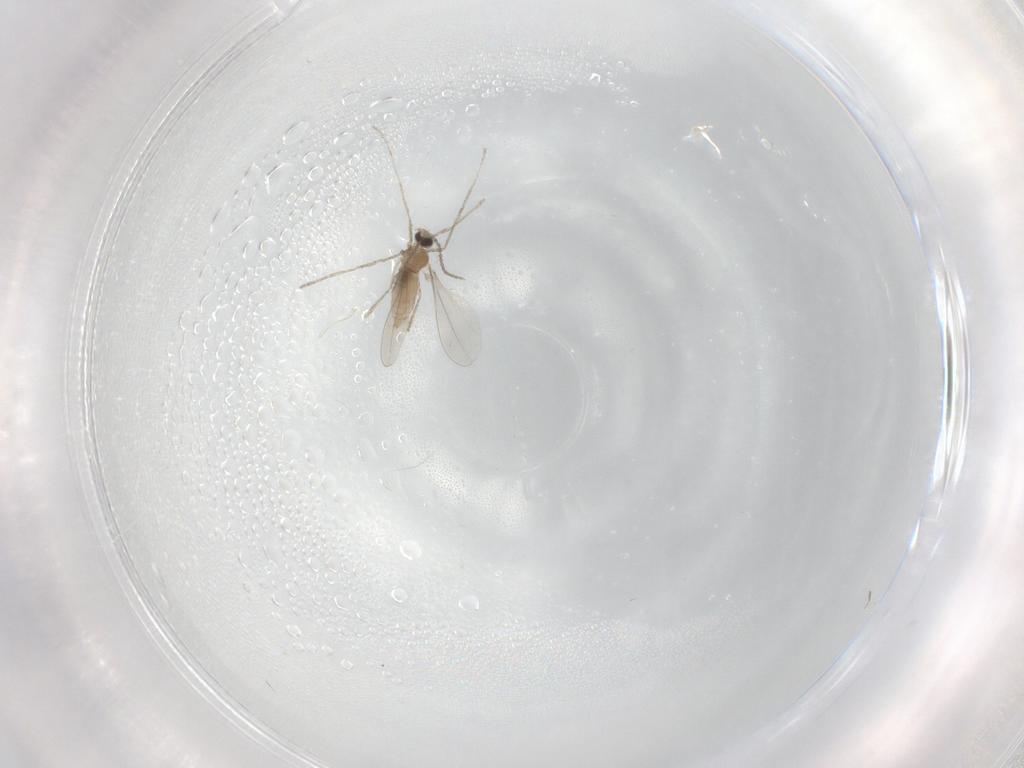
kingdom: Animalia
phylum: Arthropoda
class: Insecta
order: Diptera
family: Cecidomyiidae
